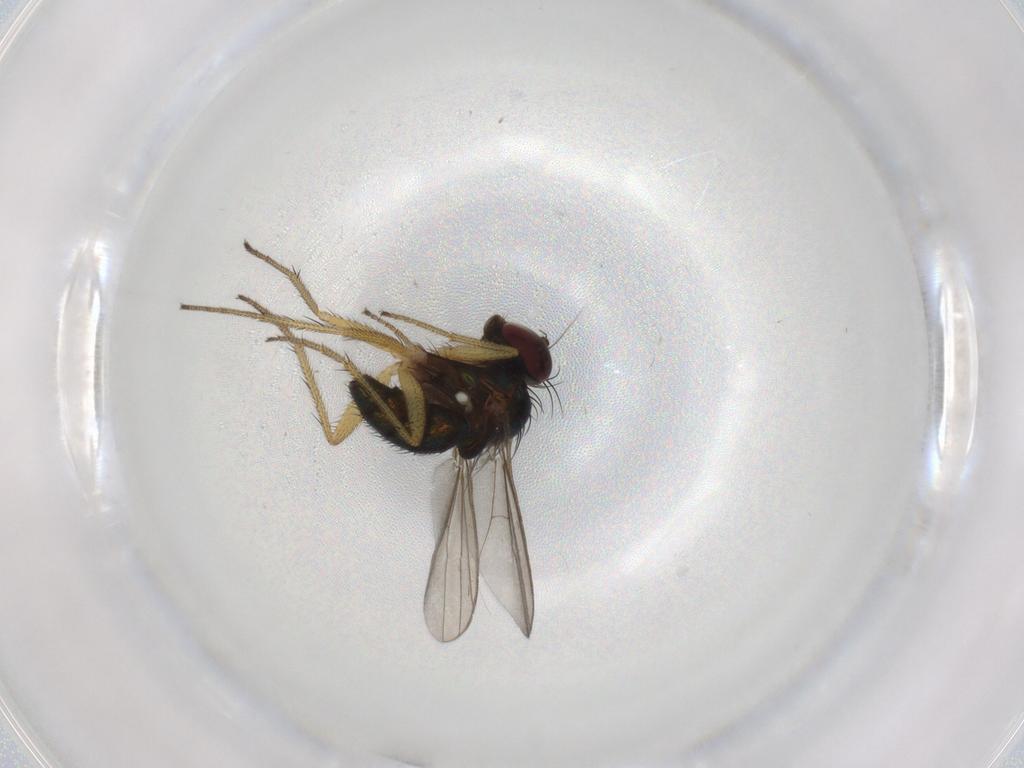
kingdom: Animalia
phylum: Arthropoda
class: Insecta
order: Diptera
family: Dolichopodidae
